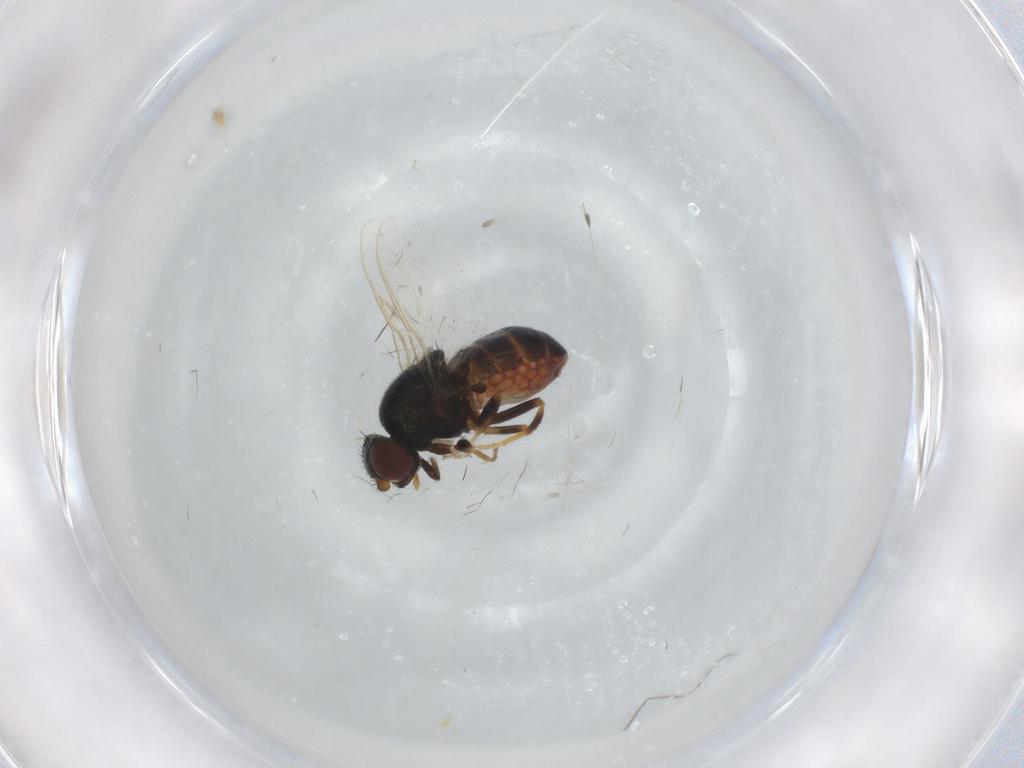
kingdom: Animalia
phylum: Arthropoda
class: Insecta
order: Diptera
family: Chloropidae
